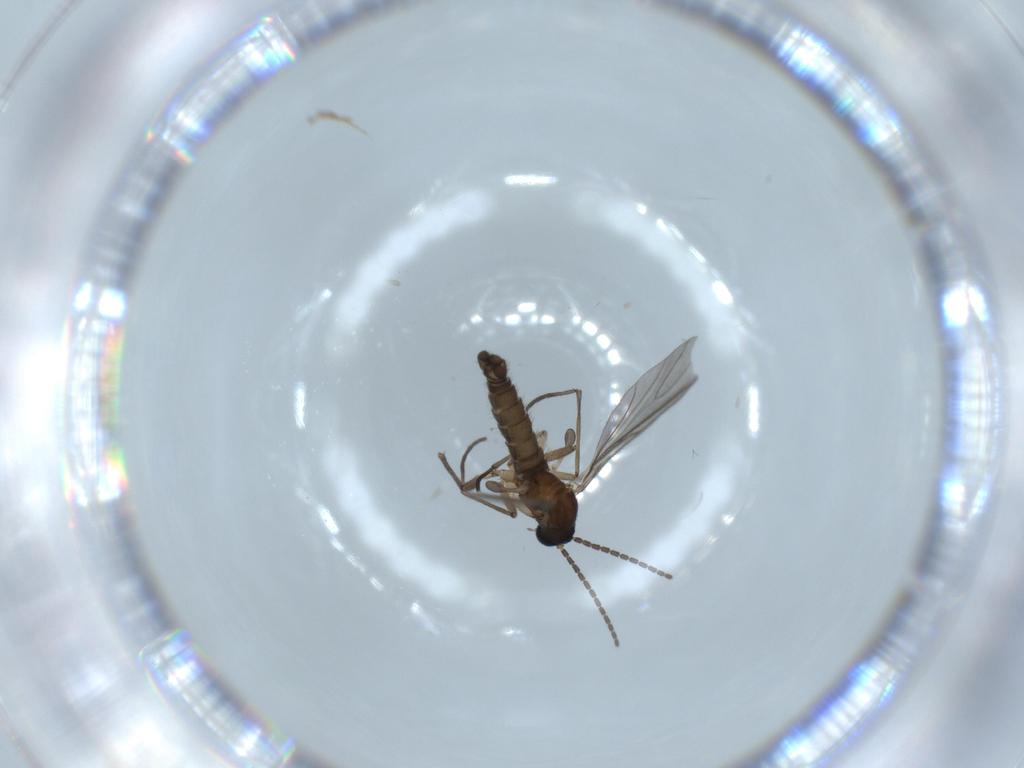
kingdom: Animalia
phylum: Arthropoda
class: Insecta
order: Diptera
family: Sciaridae
